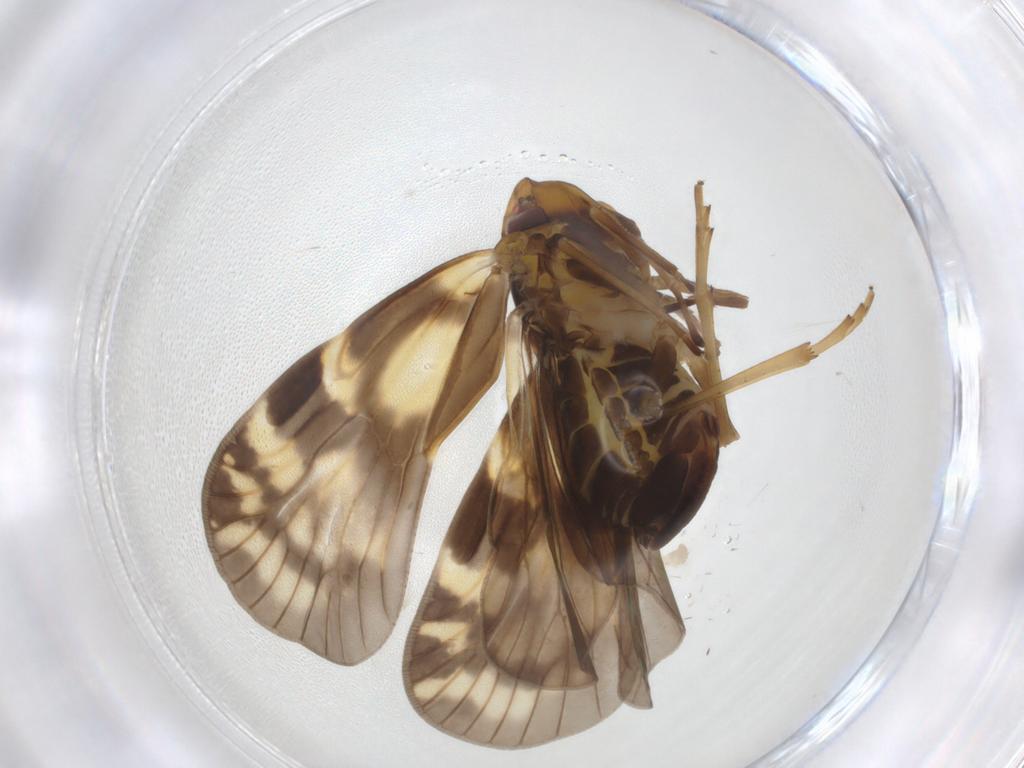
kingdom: Animalia
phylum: Arthropoda
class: Insecta
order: Hemiptera
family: Cixiidae
